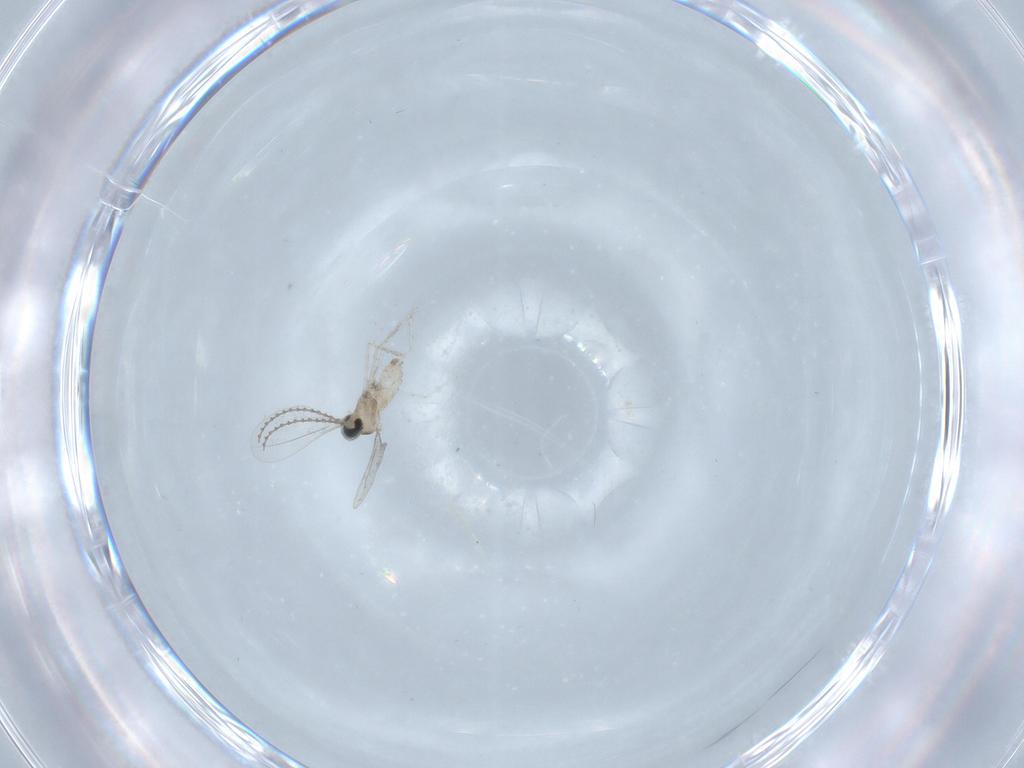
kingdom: Animalia
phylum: Arthropoda
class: Insecta
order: Diptera
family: Cecidomyiidae
